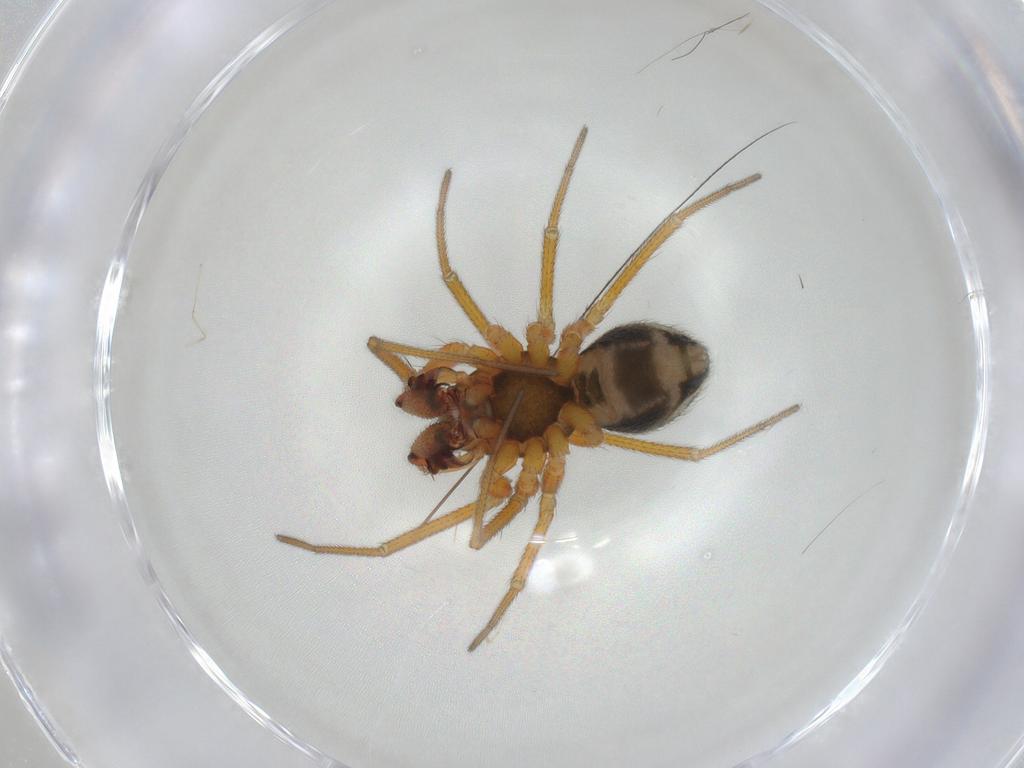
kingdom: Animalia
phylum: Arthropoda
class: Arachnida
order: Araneae
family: Linyphiidae
